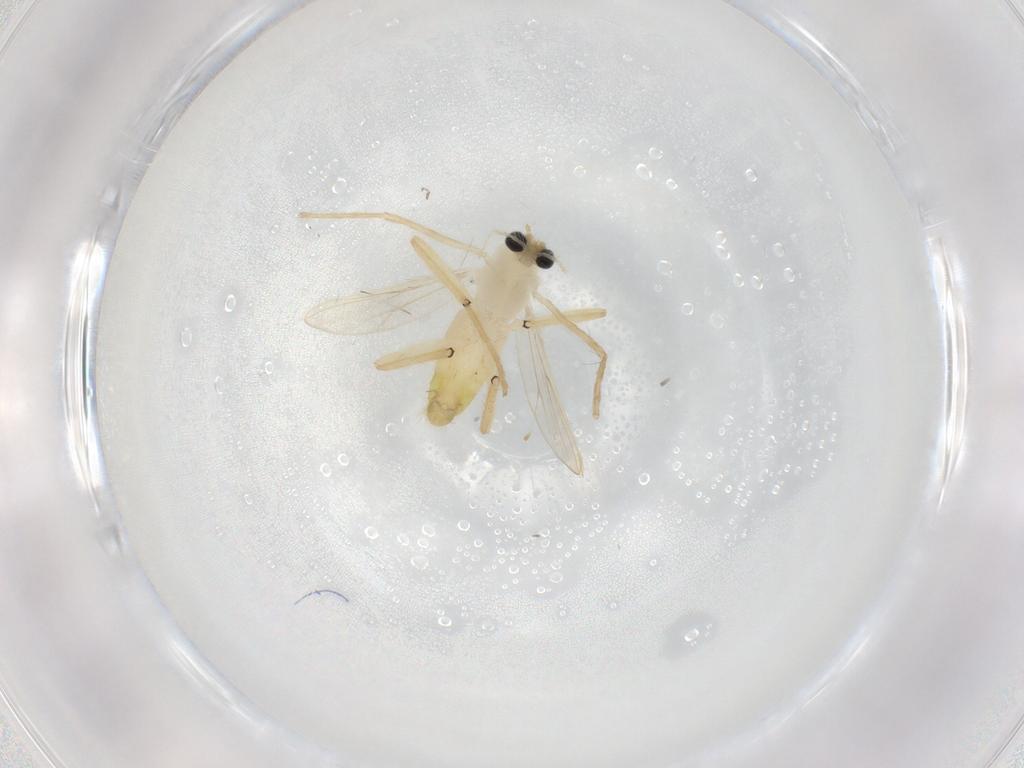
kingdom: Animalia
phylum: Arthropoda
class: Insecta
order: Diptera
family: Chironomidae
